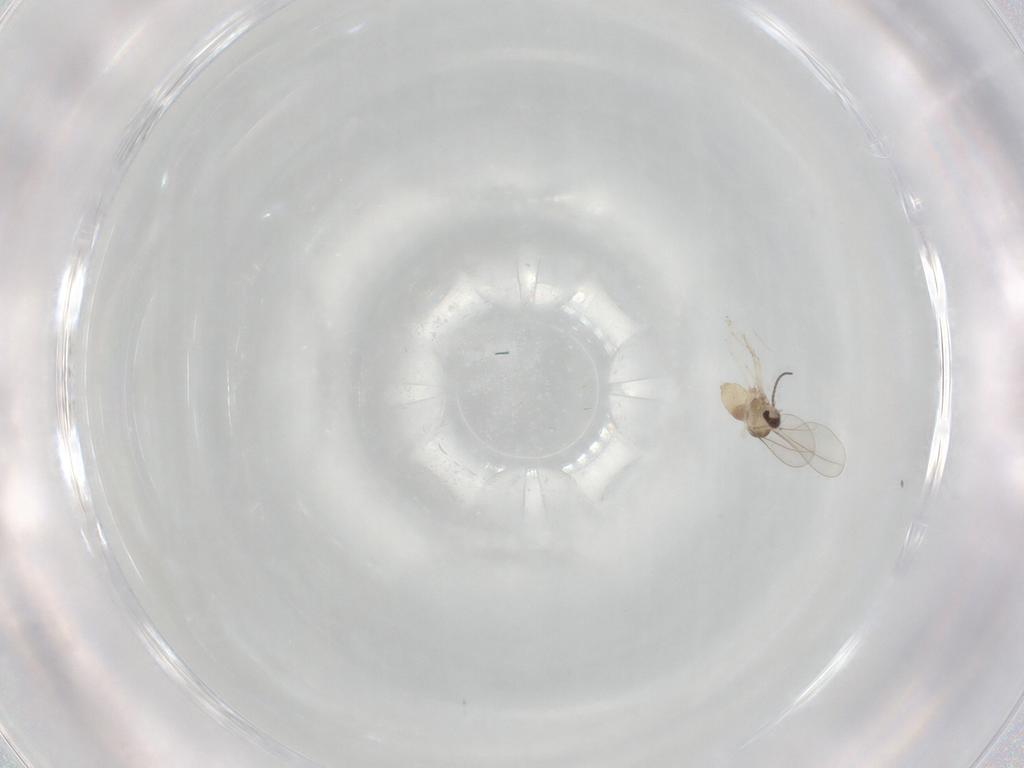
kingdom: Animalia
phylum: Arthropoda
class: Insecta
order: Diptera
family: Cecidomyiidae
